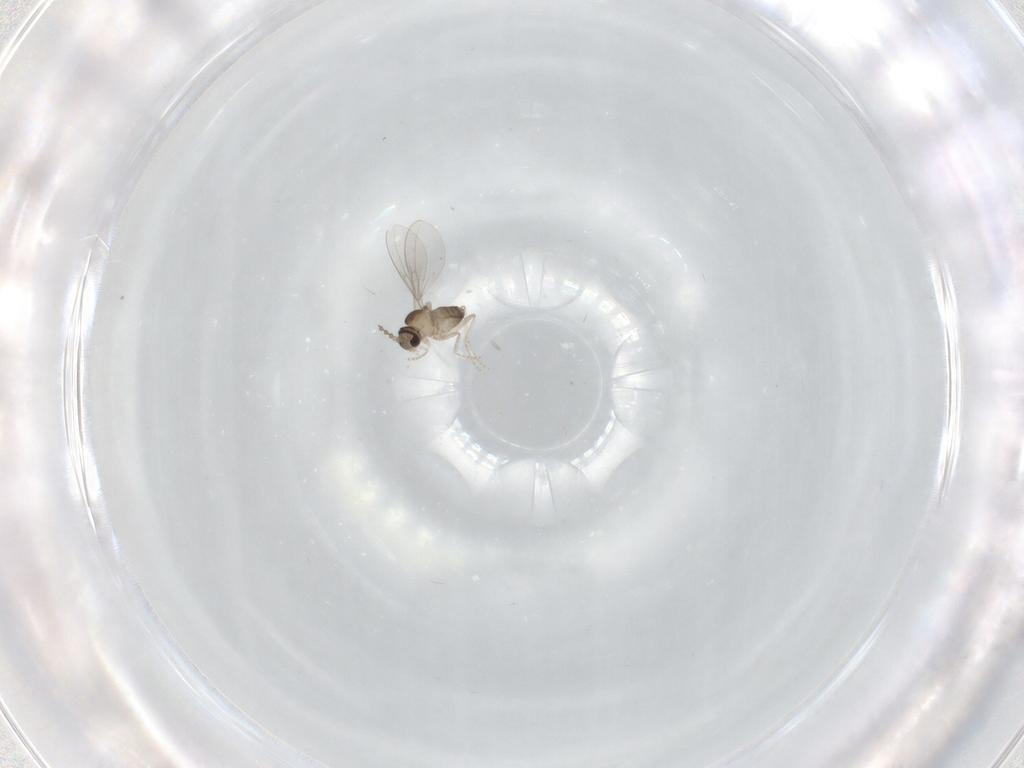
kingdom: Animalia
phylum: Arthropoda
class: Insecta
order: Diptera
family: Cecidomyiidae
